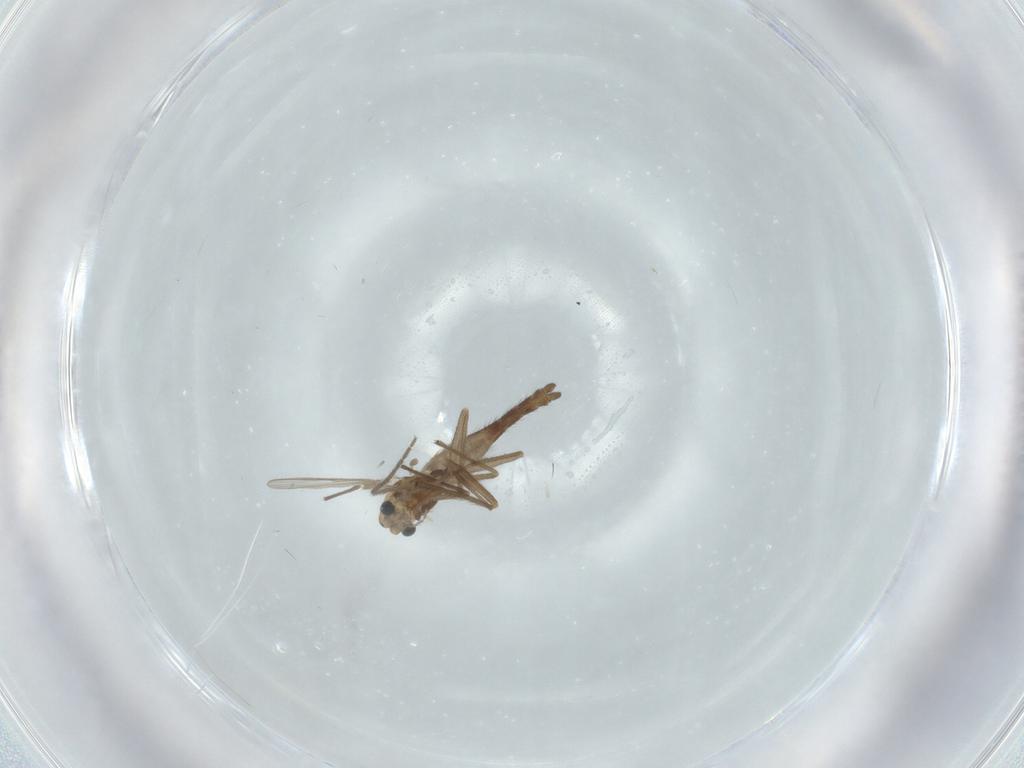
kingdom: Animalia
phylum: Arthropoda
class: Insecta
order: Diptera
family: Chironomidae
